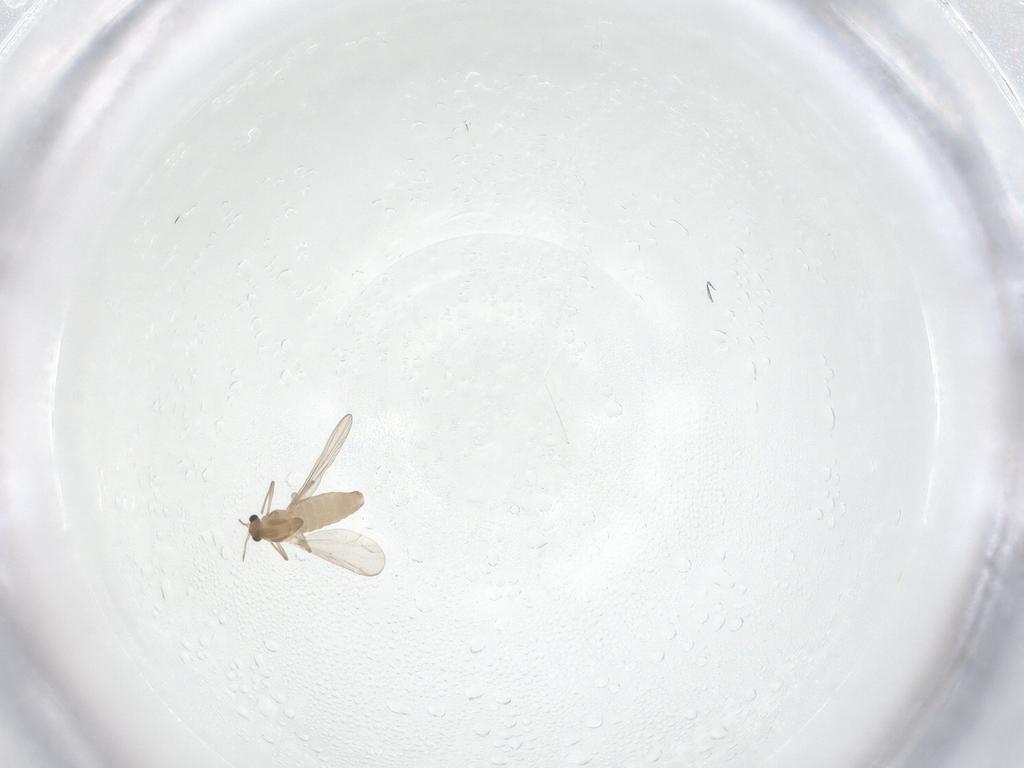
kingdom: Animalia
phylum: Arthropoda
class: Insecta
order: Diptera
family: Chironomidae
